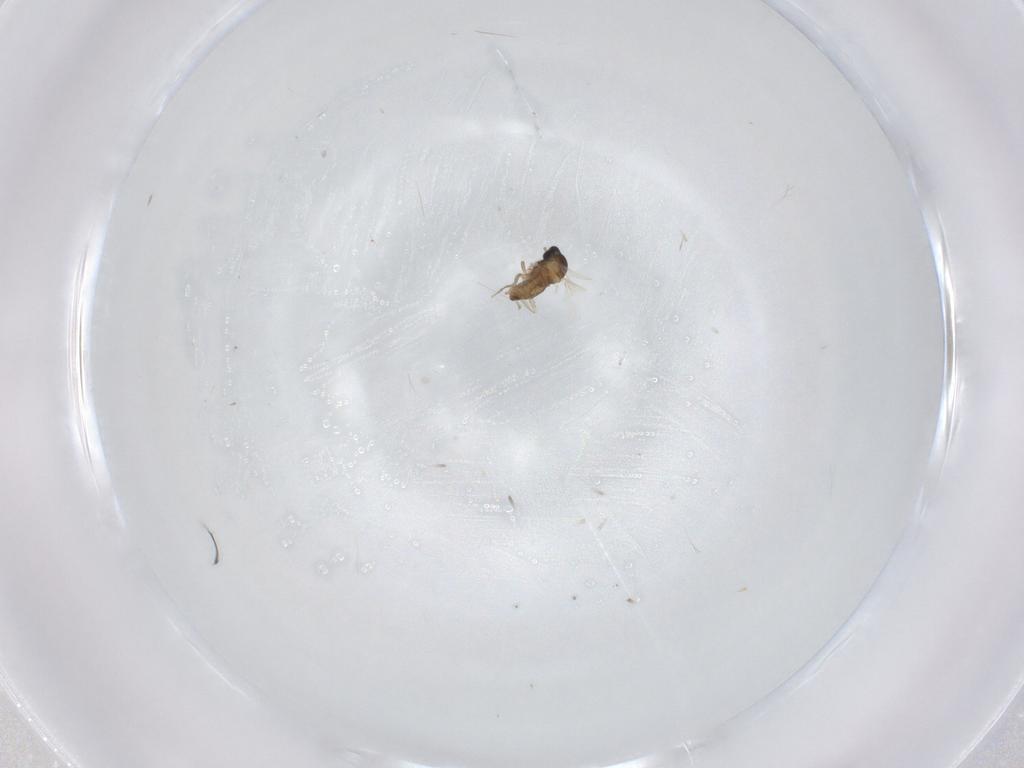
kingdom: Animalia
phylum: Arthropoda
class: Insecta
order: Diptera
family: Cecidomyiidae
